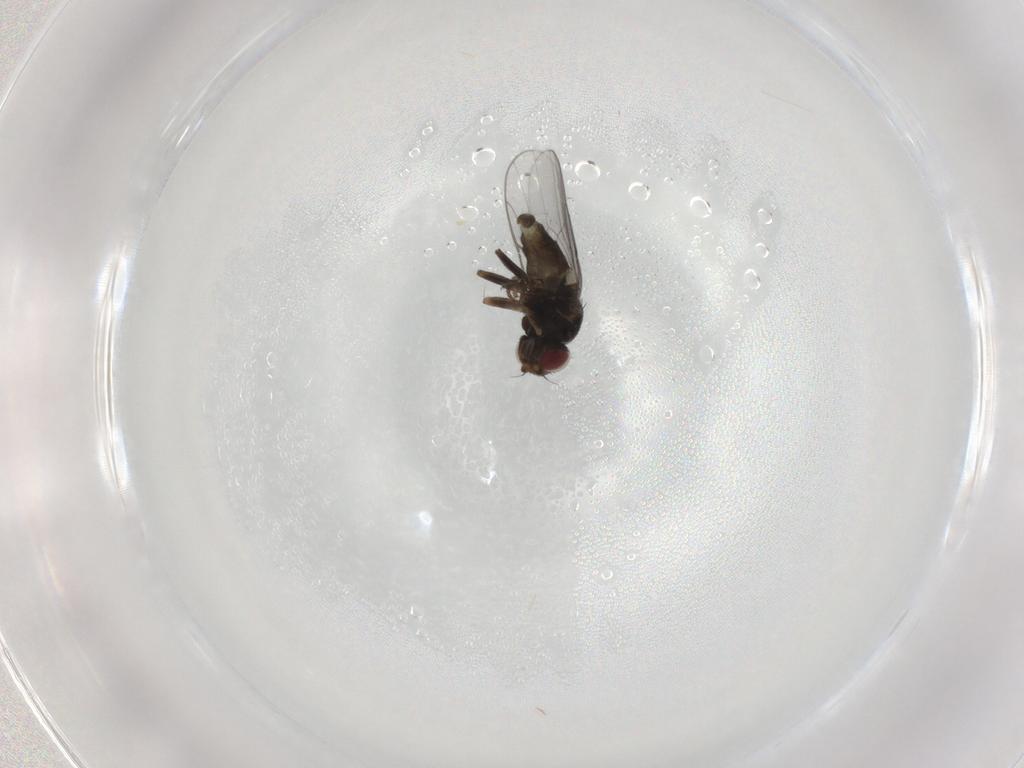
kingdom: Animalia
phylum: Arthropoda
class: Insecta
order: Diptera
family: Chloropidae
